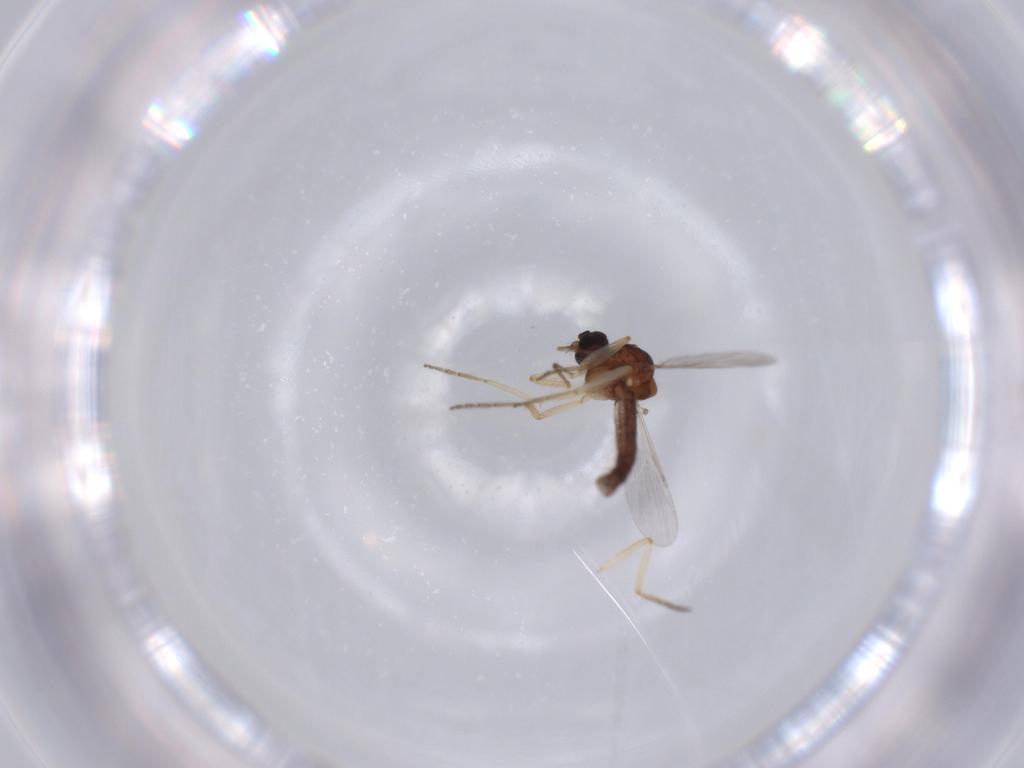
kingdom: Animalia
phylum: Arthropoda
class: Insecta
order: Diptera
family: Ceratopogonidae
